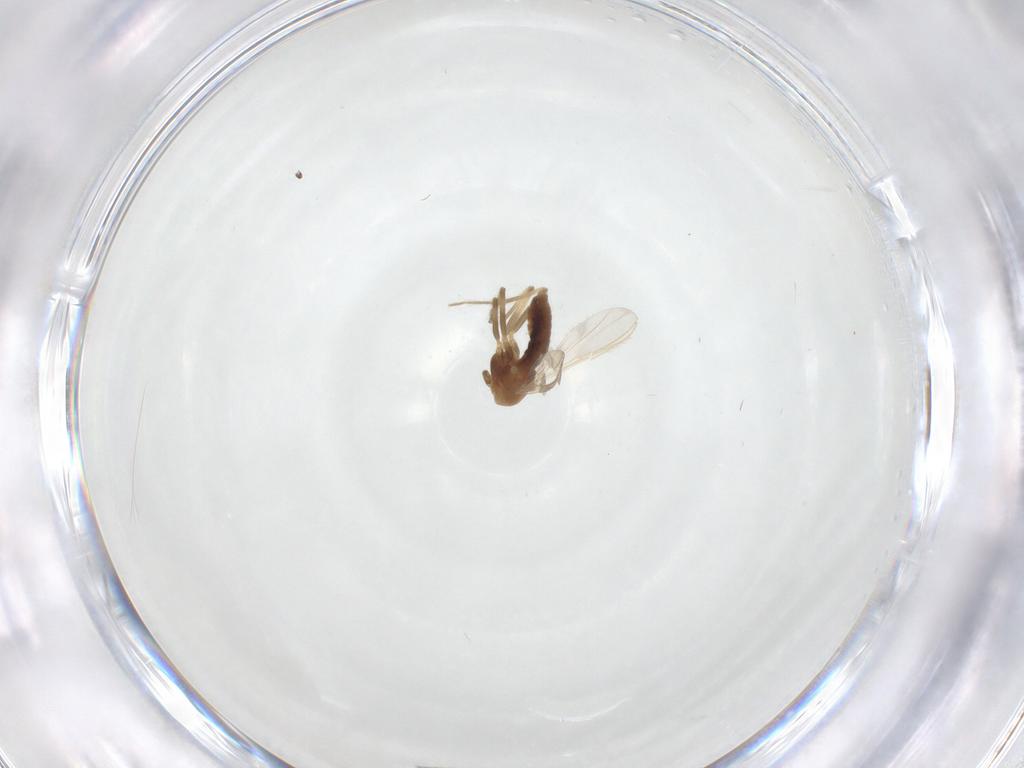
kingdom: Animalia
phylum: Arthropoda
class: Insecta
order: Diptera
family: Chironomidae
